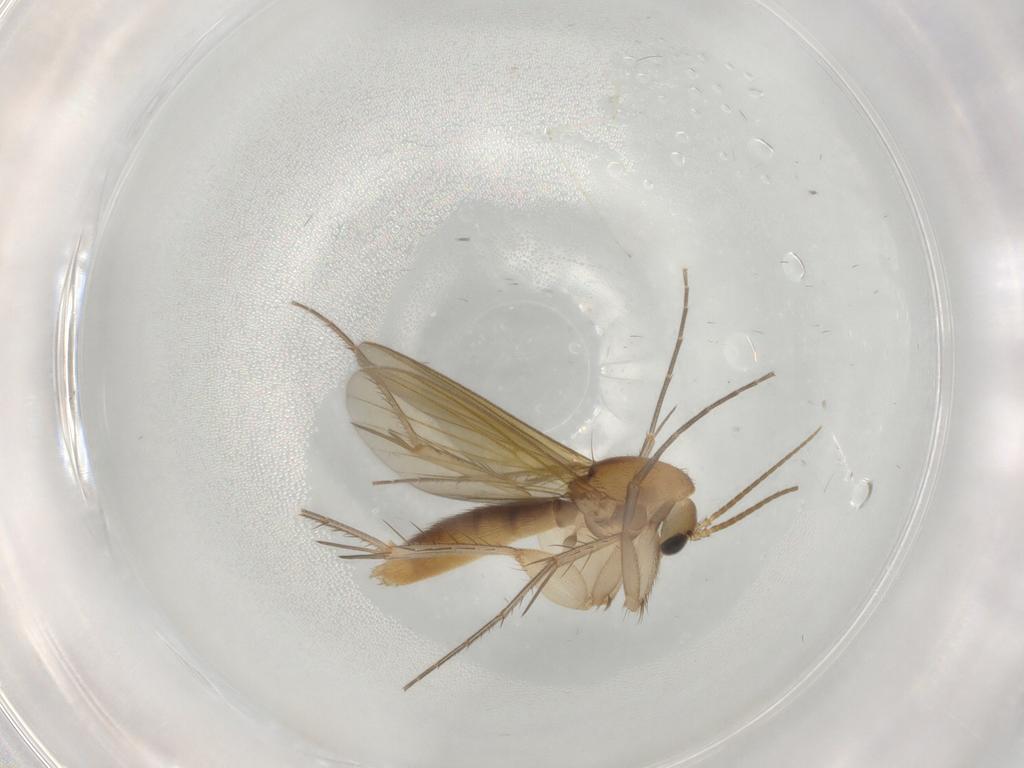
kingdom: Animalia
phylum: Arthropoda
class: Insecta
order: Diptera
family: Mycetophilidae
